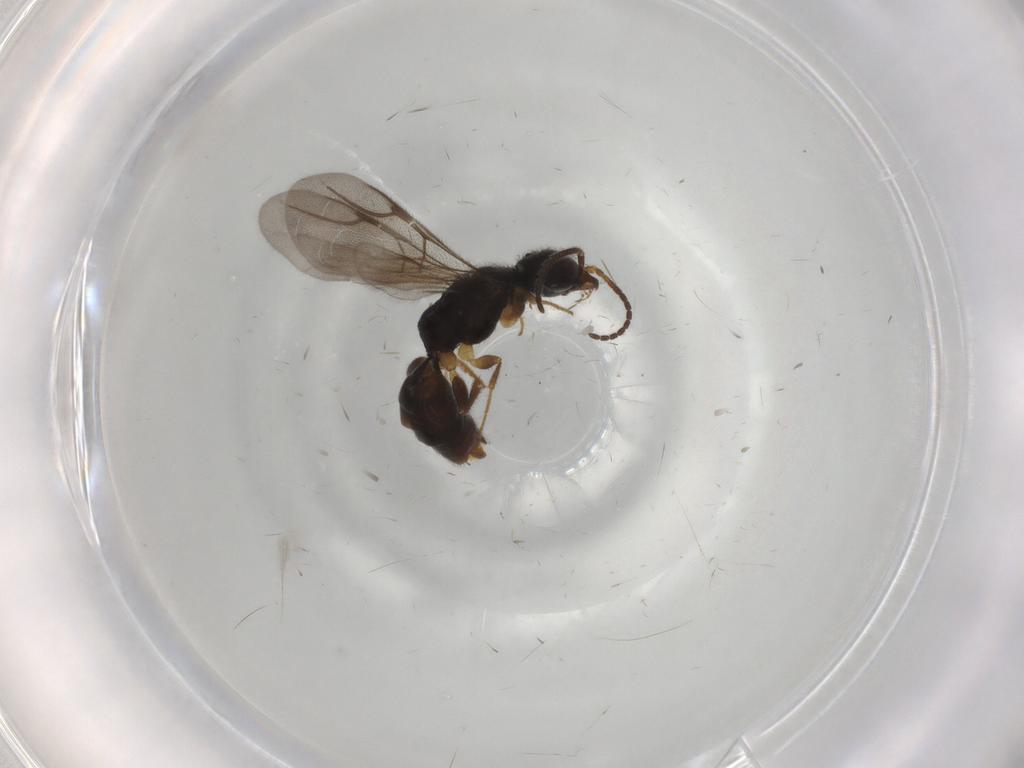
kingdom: Animalia
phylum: Arthropoda
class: Insecta
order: Hymenoptera
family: Bethylidae
